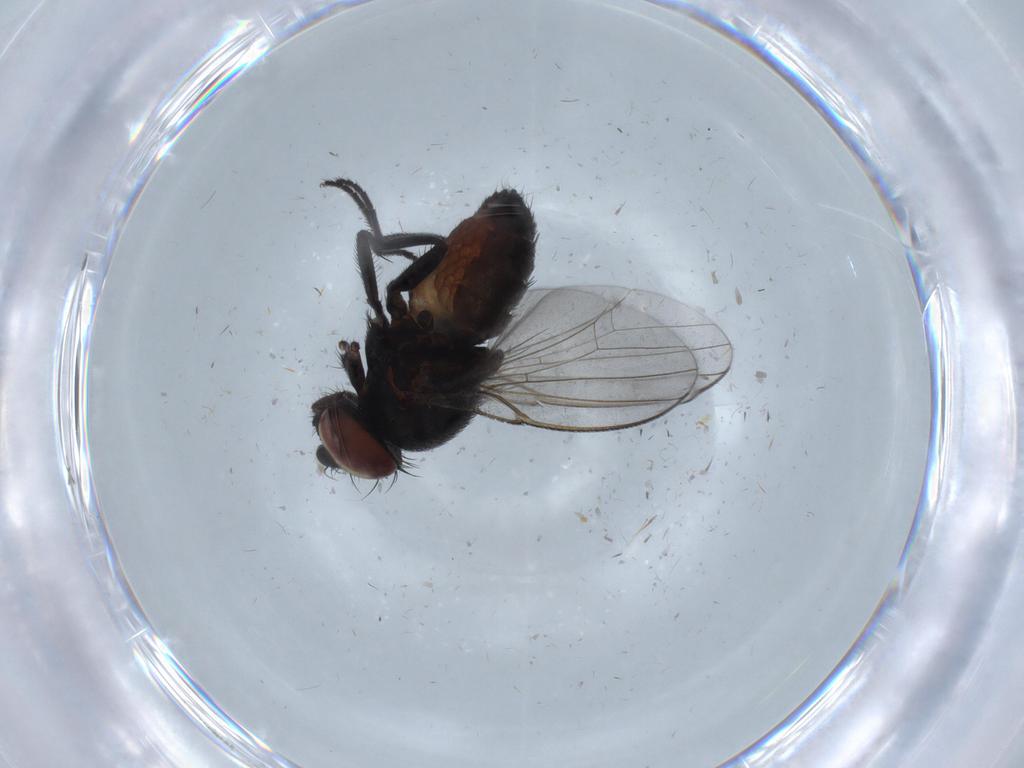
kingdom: Animalia
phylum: Arthropoda
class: Insecta
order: Diptera
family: Milichiidae
